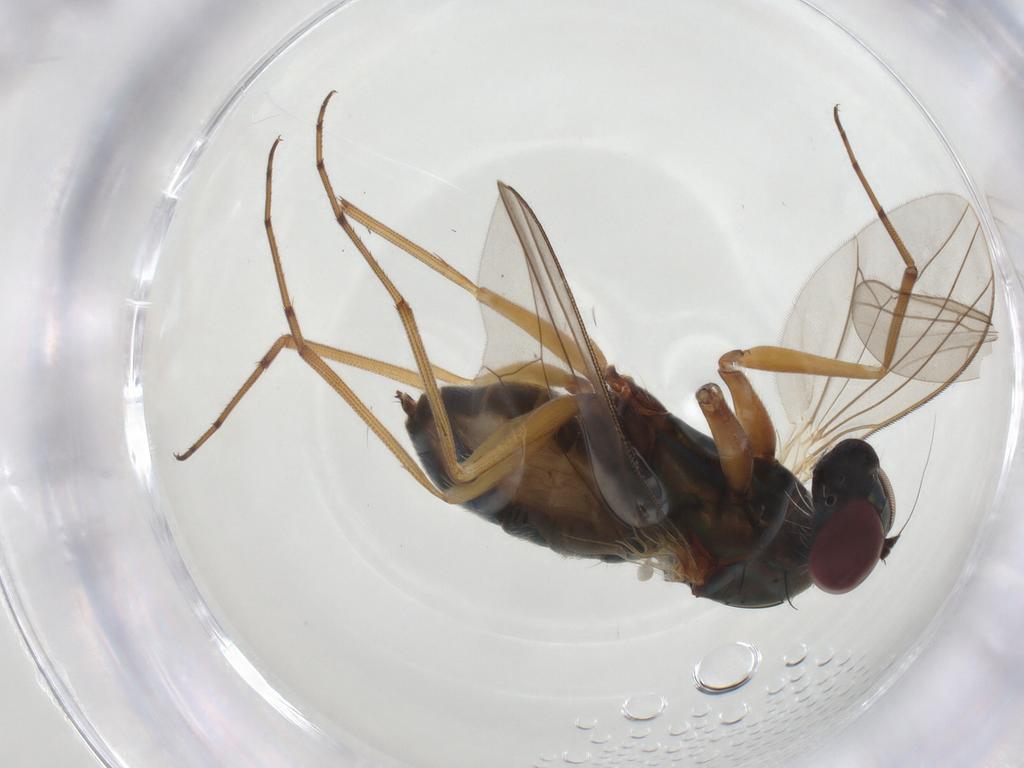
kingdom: Animalia
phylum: Arthropoda
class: Insecta
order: Diptera
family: Dolichopodidae
